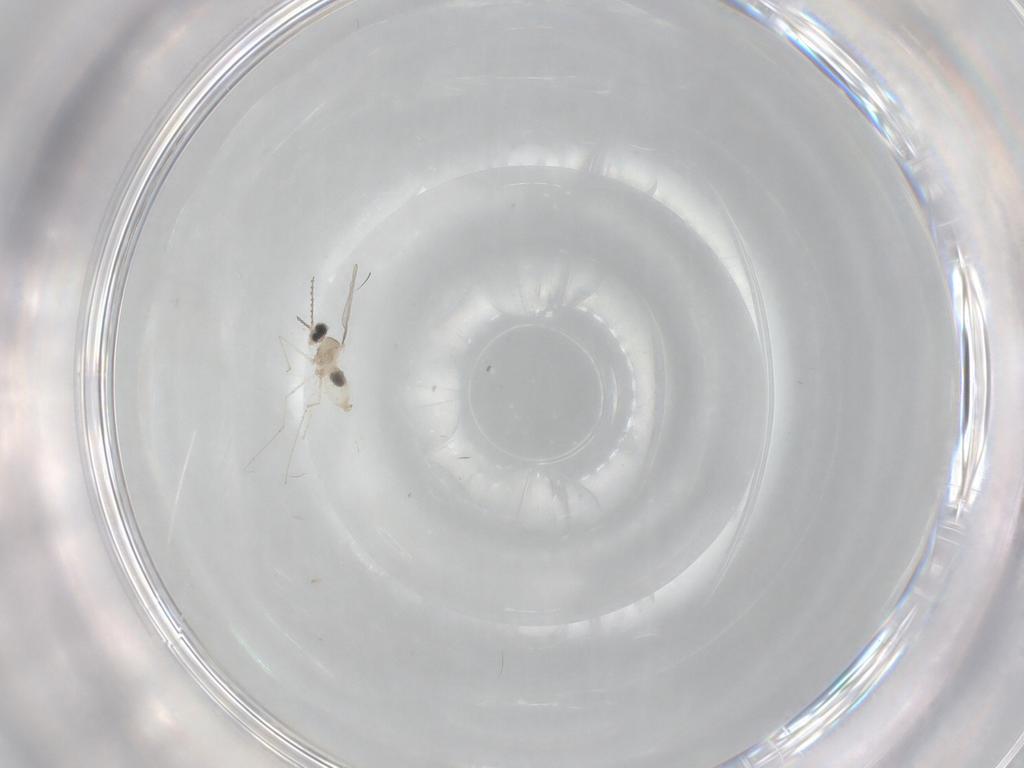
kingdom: Animalia
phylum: Arthropoda
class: Insecta
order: Diptera
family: Cecidomyiidae
